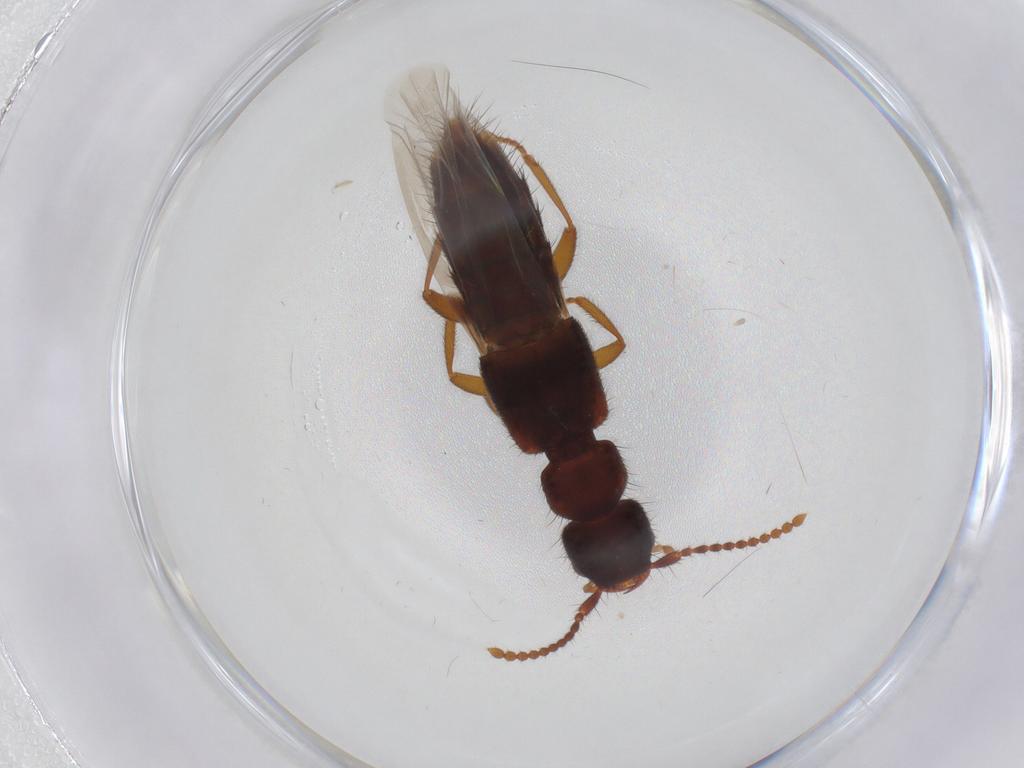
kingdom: Animalia
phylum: Arthropoda
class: Insecta
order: Coleoptera
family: Staphylinidae
